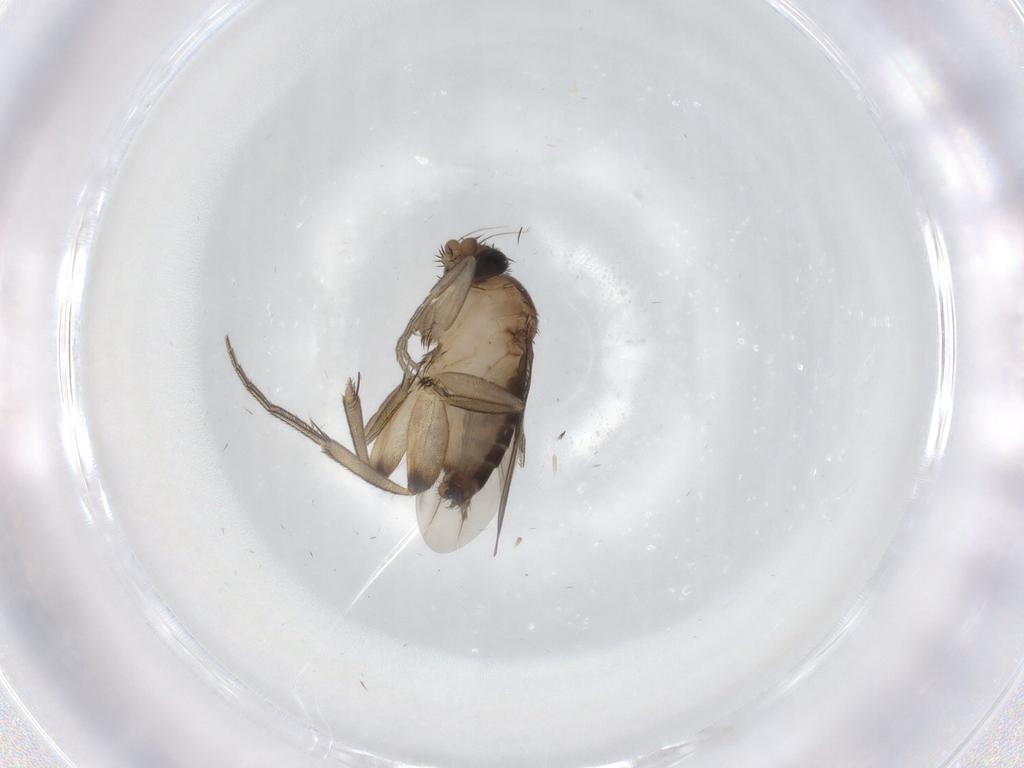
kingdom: Animalia
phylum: Arthropoda
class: Insecta
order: Diptera
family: Phoridae
